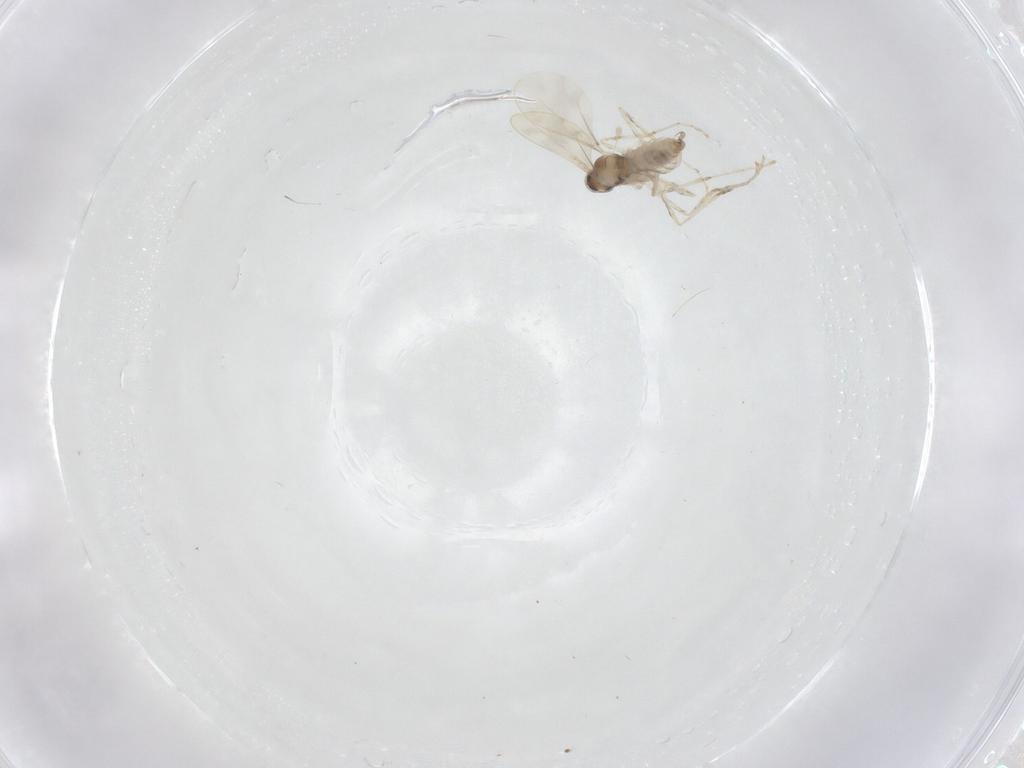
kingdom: Animalia
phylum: Arthropoda
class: Insecta
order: Diptera
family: Cecidomyiidae
